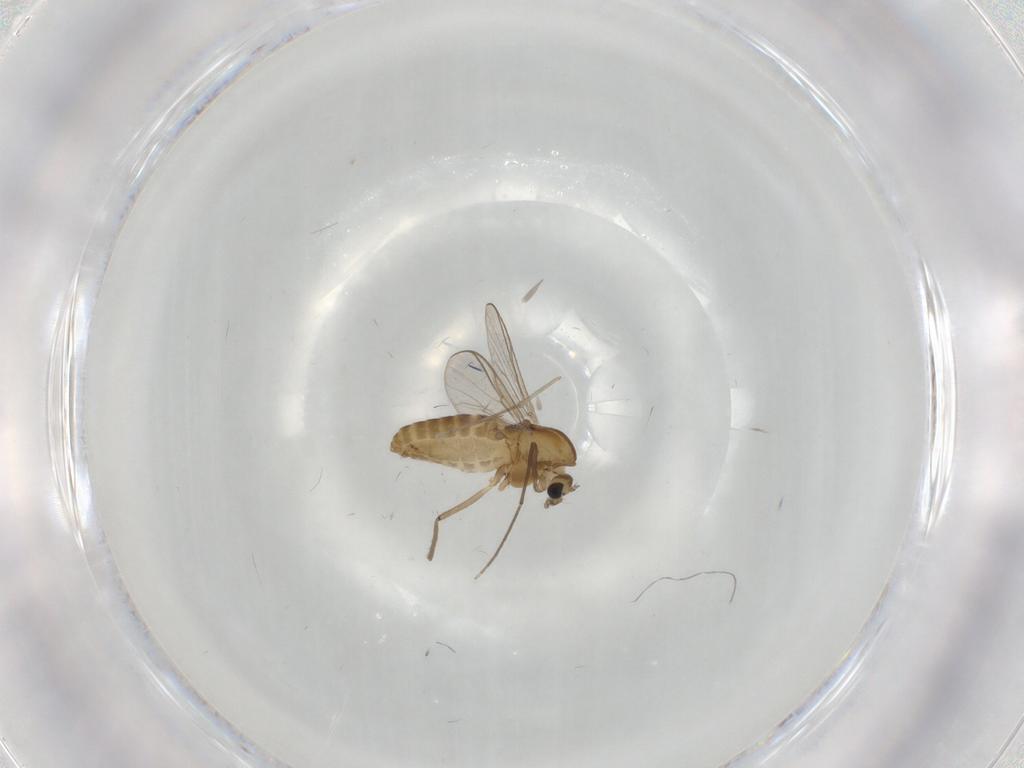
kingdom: Animalia
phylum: Arthropoda
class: Insecta
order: Diptera
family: Chironomidae
